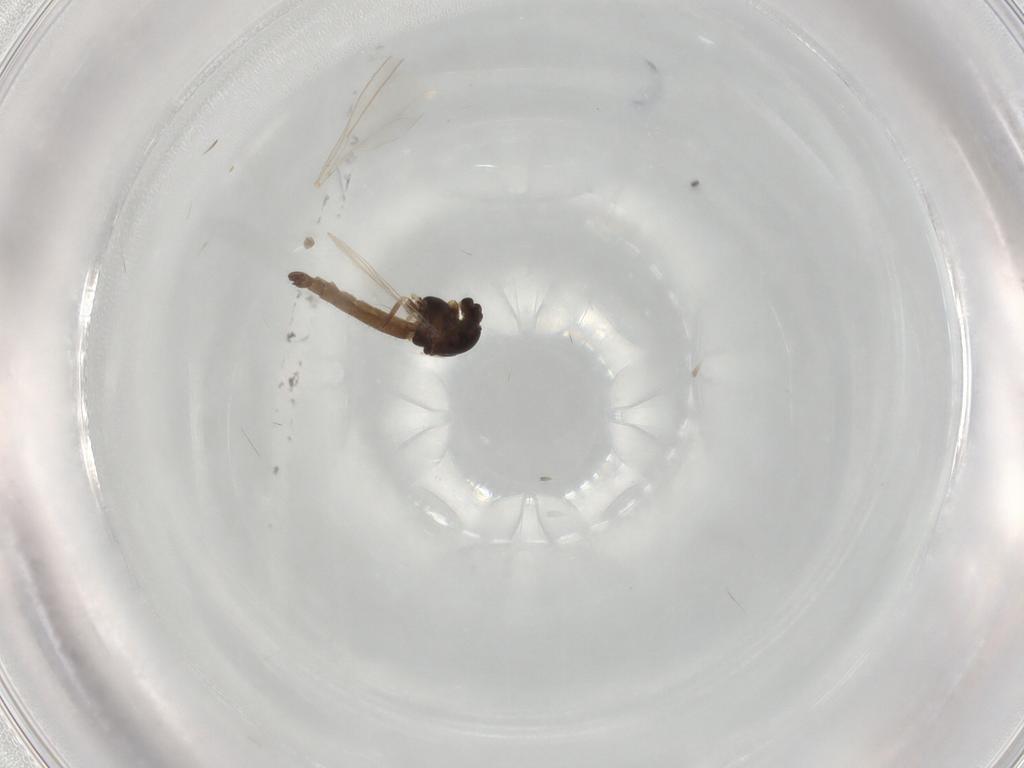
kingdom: Animalia
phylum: Arthropoda
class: Insecta
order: Diptera
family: Chironomidae
